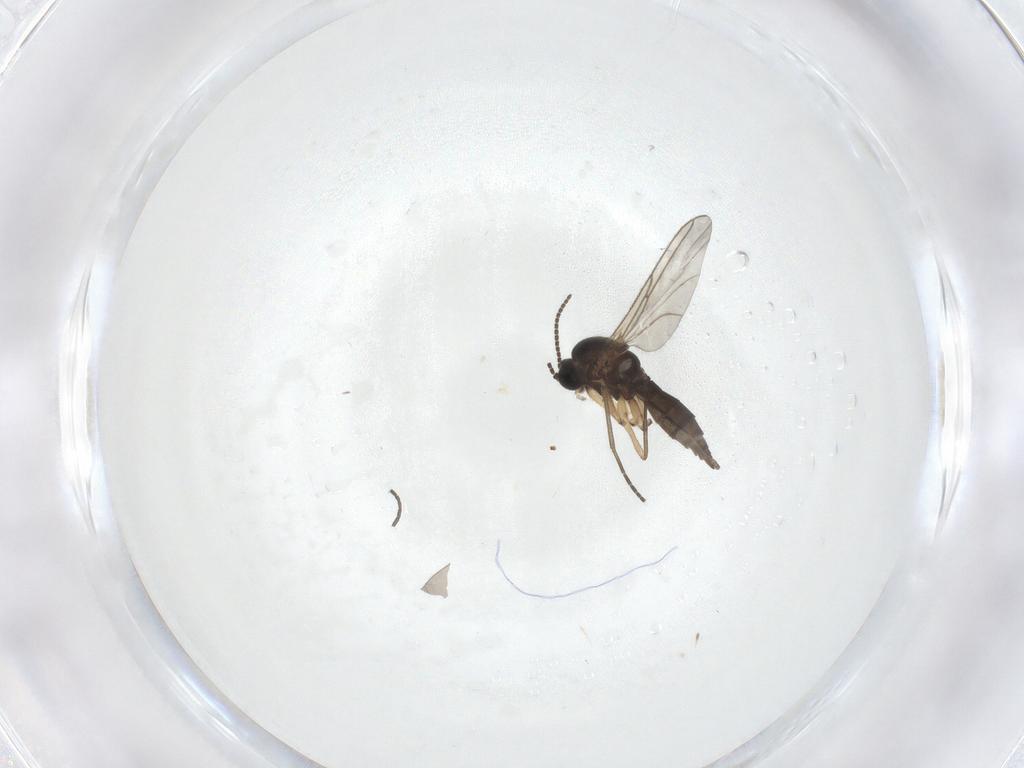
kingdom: Animalia
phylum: Arthropoda
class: Insecta
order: Diptera
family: Sciaridae
